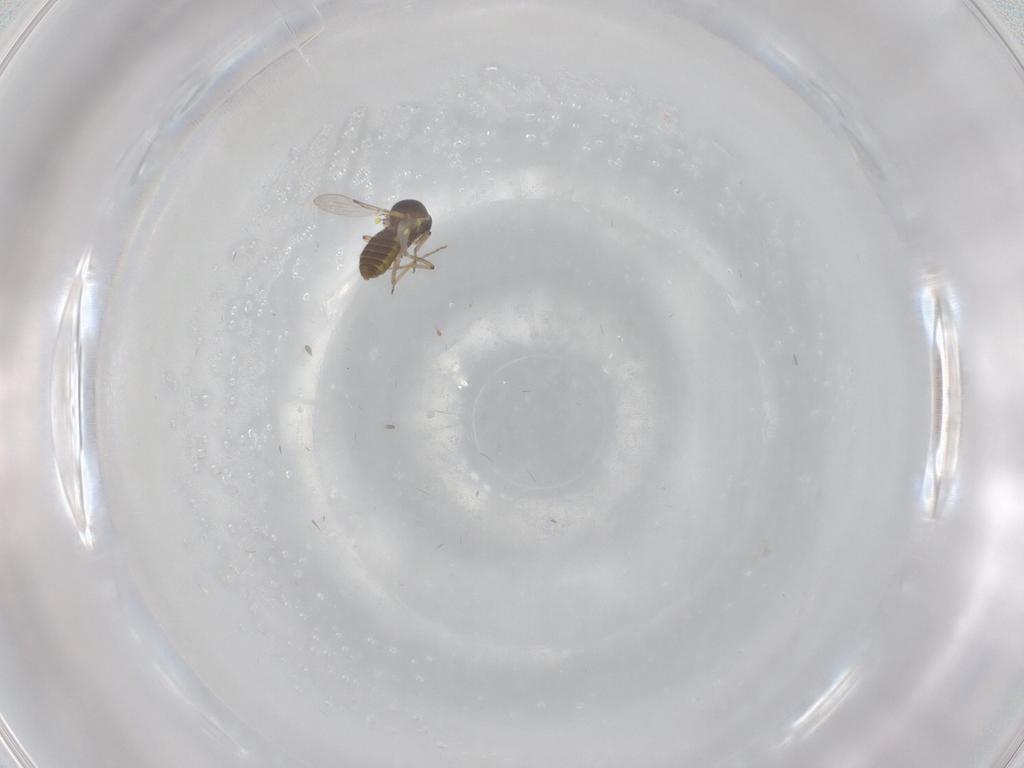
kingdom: Animalia
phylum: Arthropoda
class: Insecta
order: Diptera
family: Ceratopogonidae
